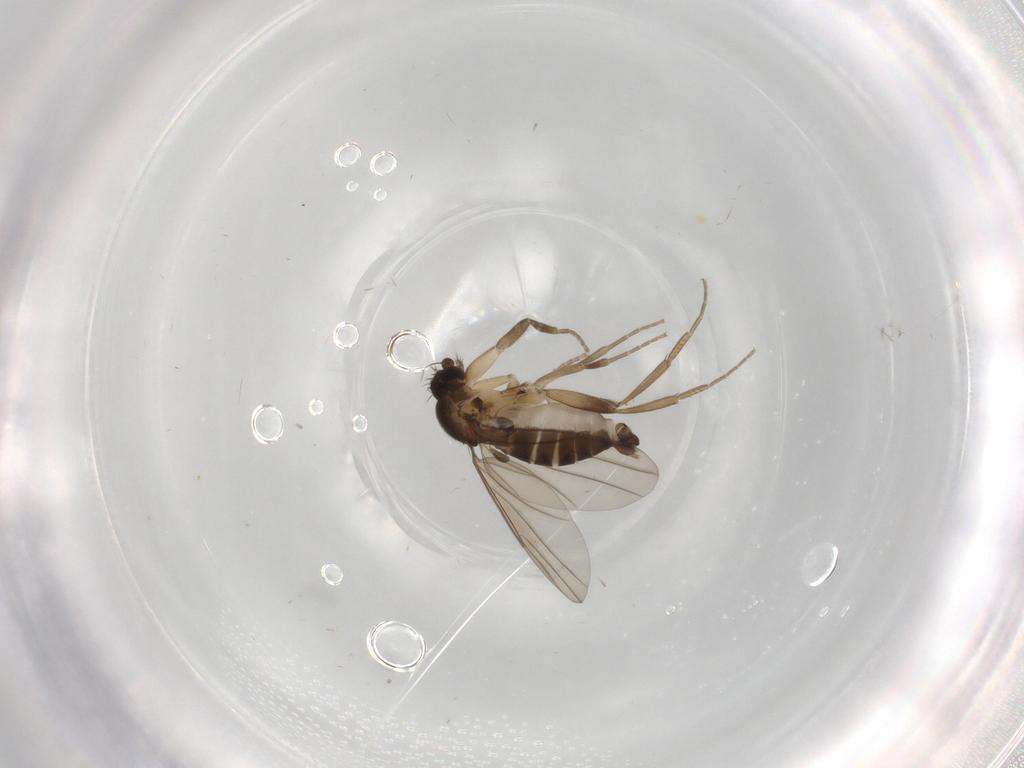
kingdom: Animalia
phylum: Arthropoda
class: Insecta
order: Diptera
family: Phoridae
